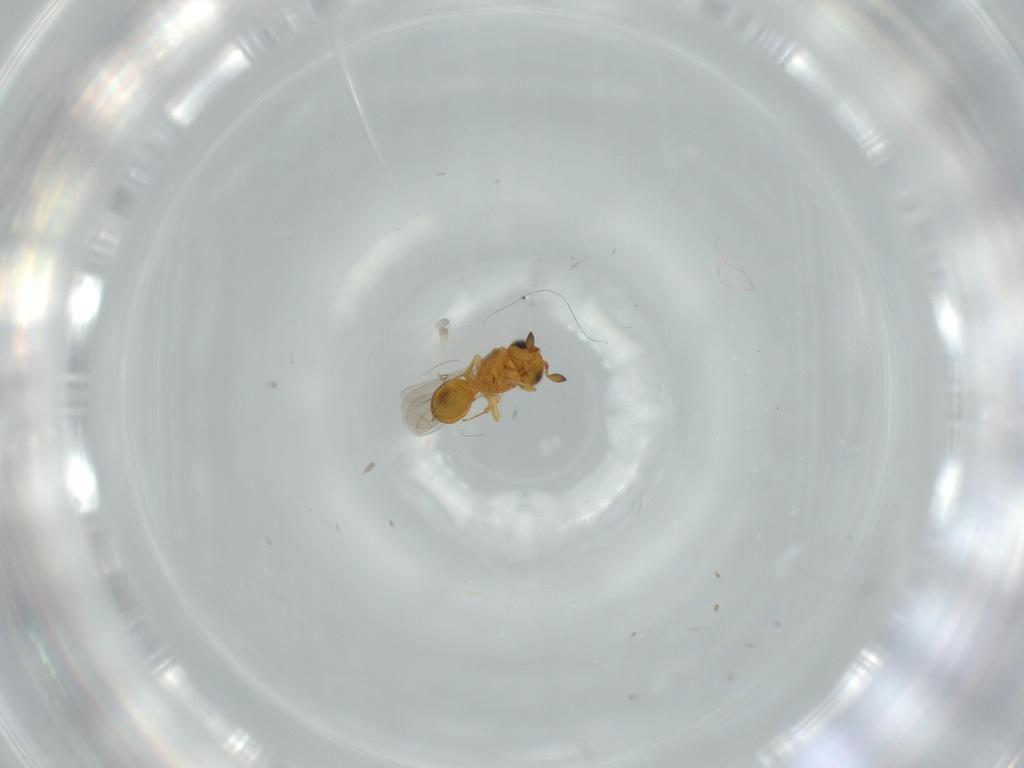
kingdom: Animalia
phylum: Arthropoda
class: Insecta
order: Hymenoptera
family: Scelionidae
